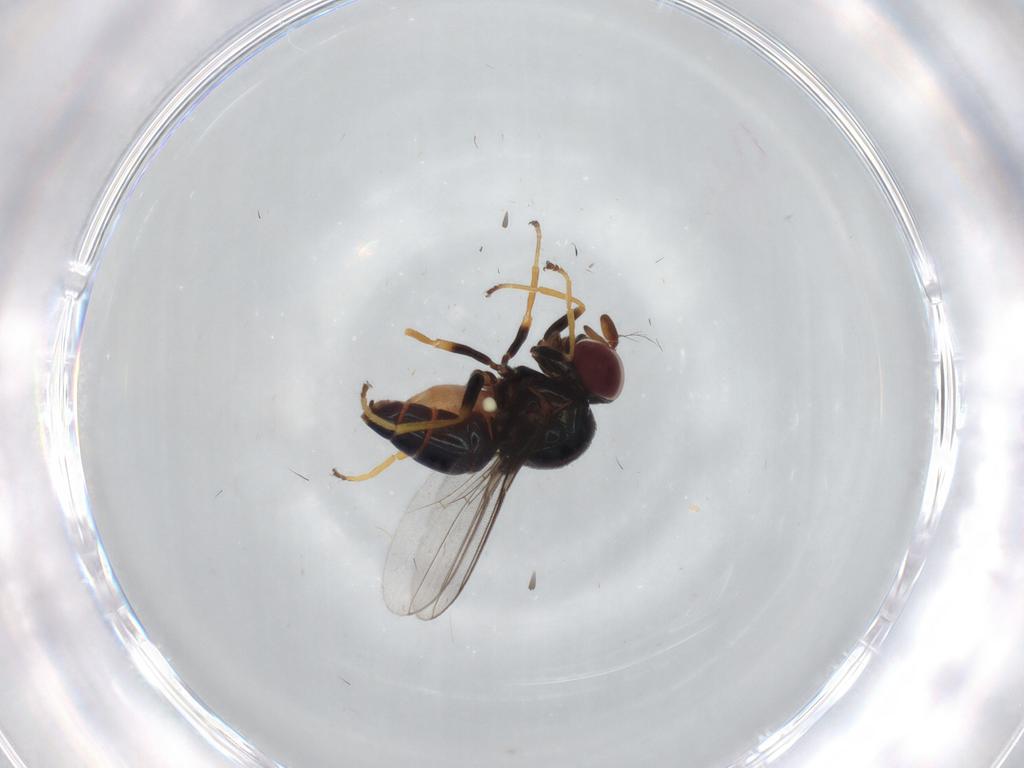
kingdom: Animalia
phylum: Arthropoda
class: Insecta
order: Diptera
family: Chloropidae
